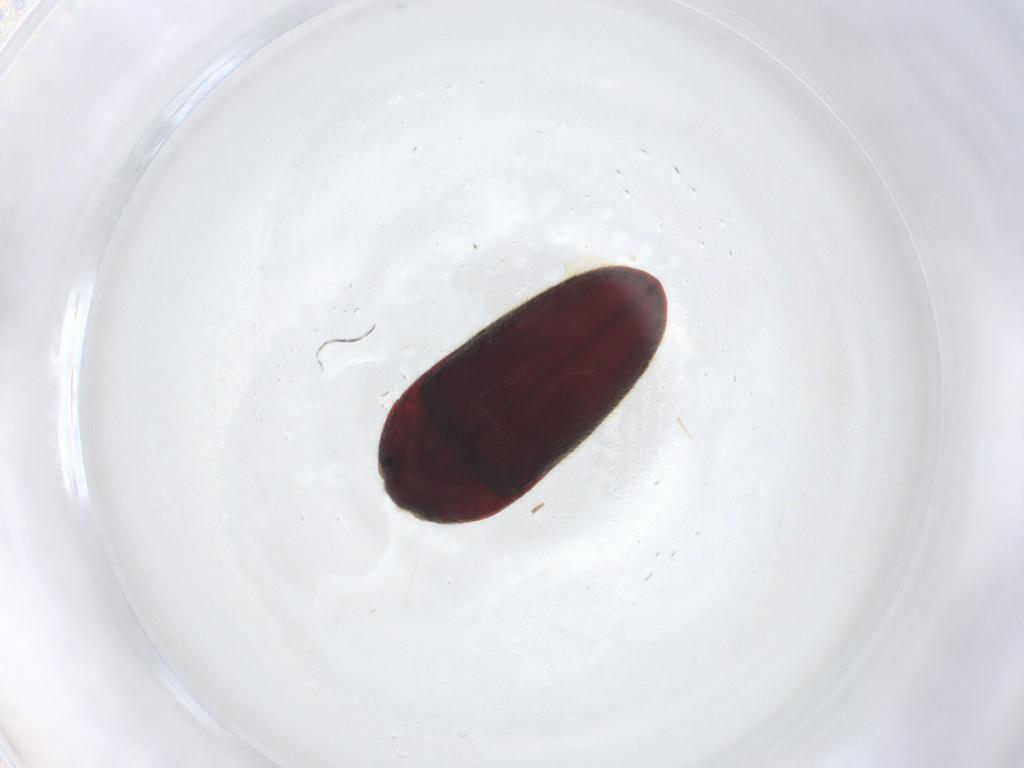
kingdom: Animalia
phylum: Arthropoda
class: Insecta
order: Coleoptera
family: Throscidae
